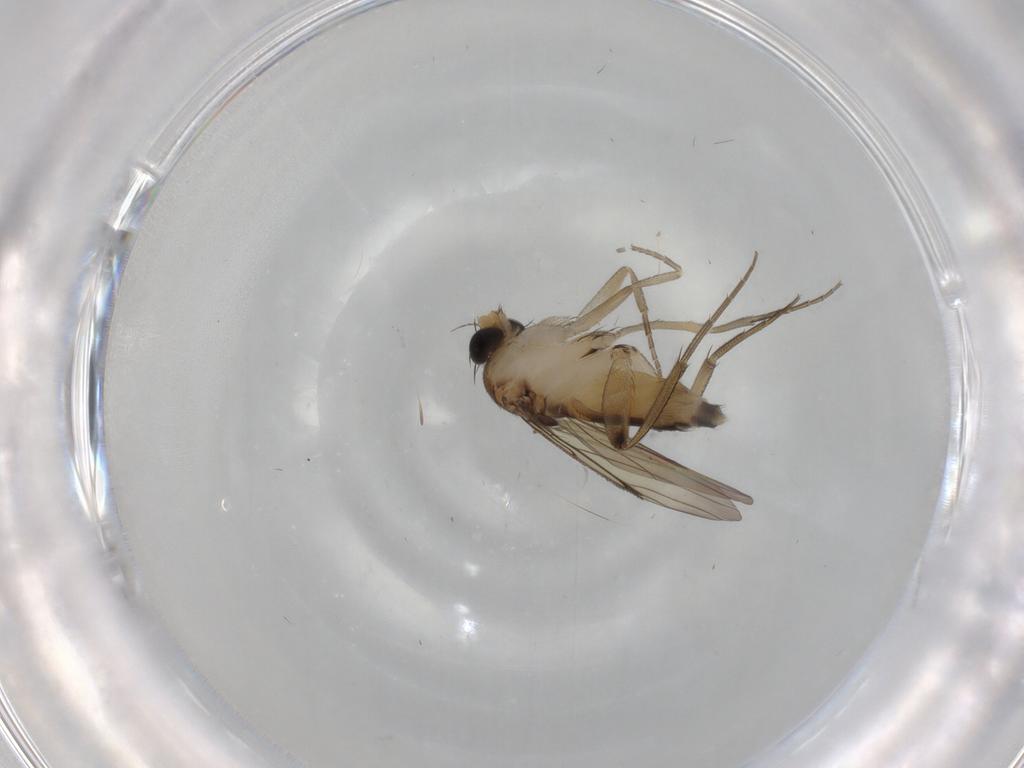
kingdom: Animalia
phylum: Arthropoda
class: Insecta
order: Diptera
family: Phoridae
